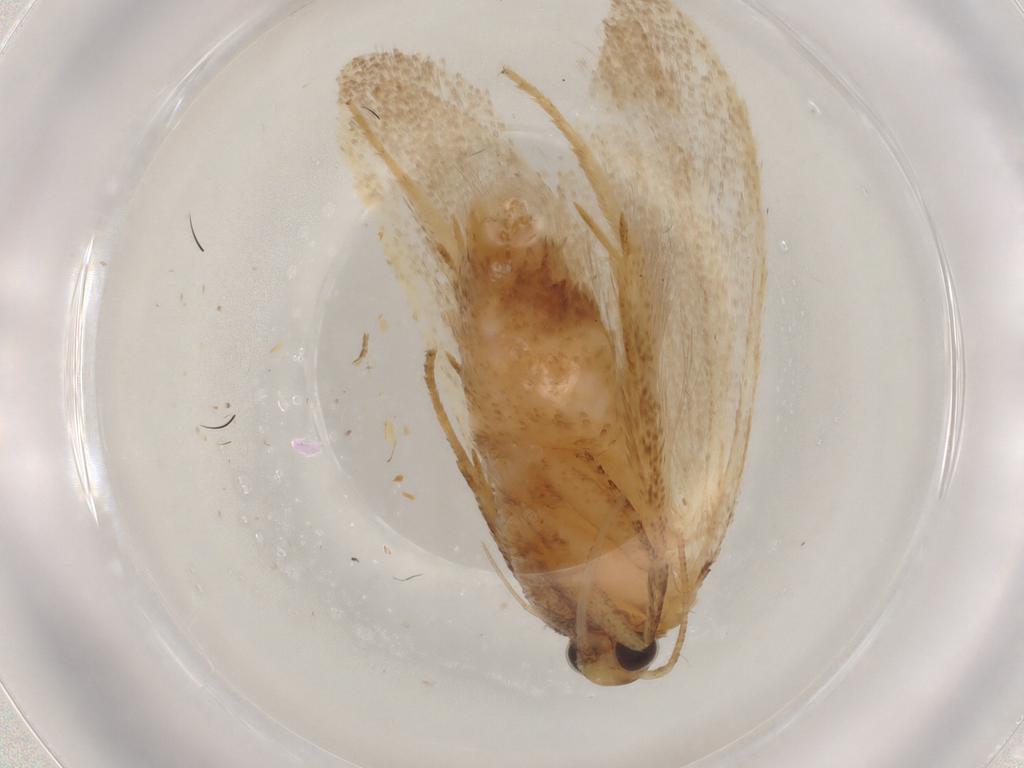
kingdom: Animalia
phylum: Arthropoda
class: Insecta
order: Lepidoptera
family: Autostichidae
